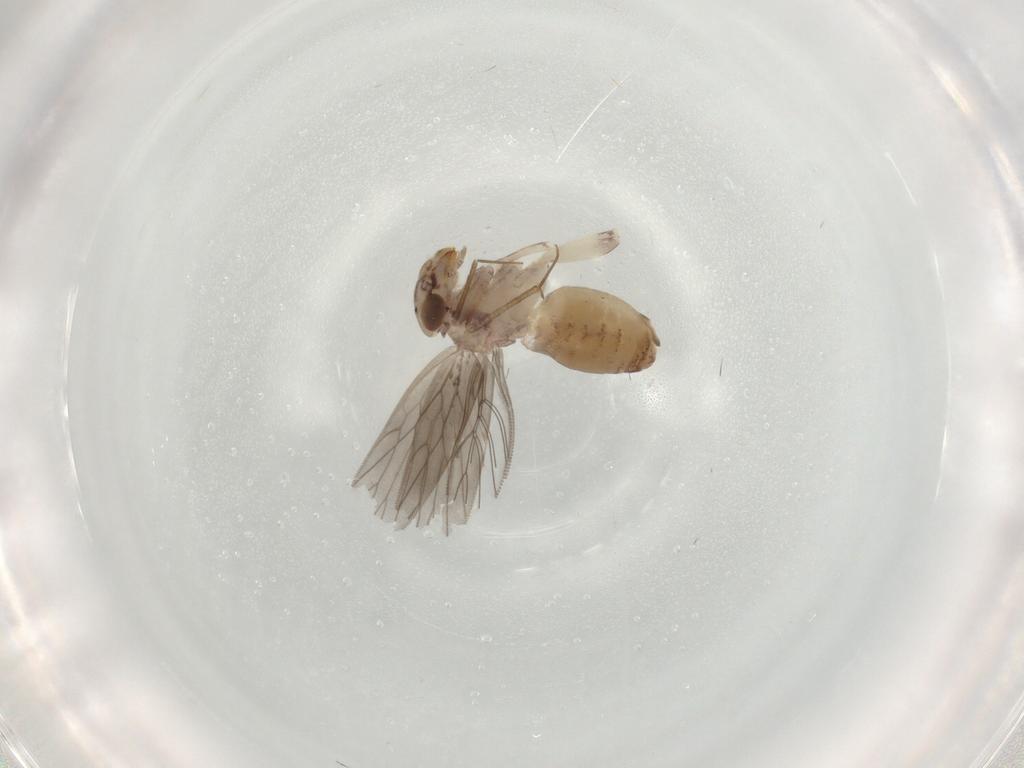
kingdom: Animalia
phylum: Arthropoda
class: Insecta
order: Psocodea
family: Lepidopsocidae
